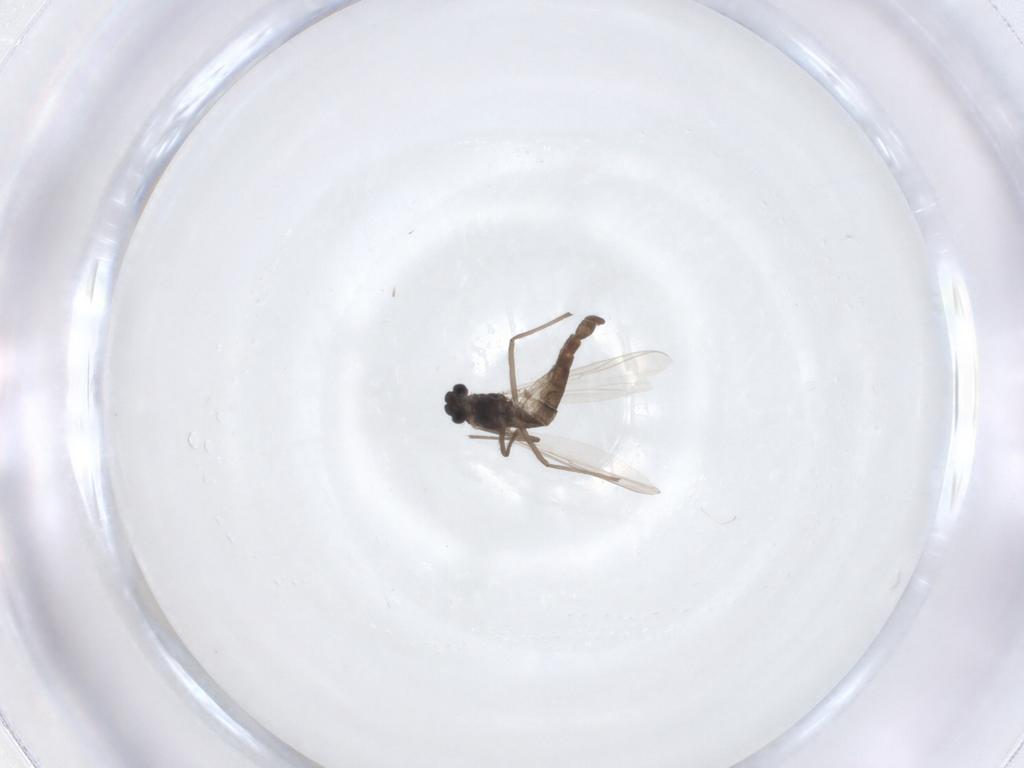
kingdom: Animalia
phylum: Arthropoda
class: Insecta
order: Diptera
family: Chironomidae
